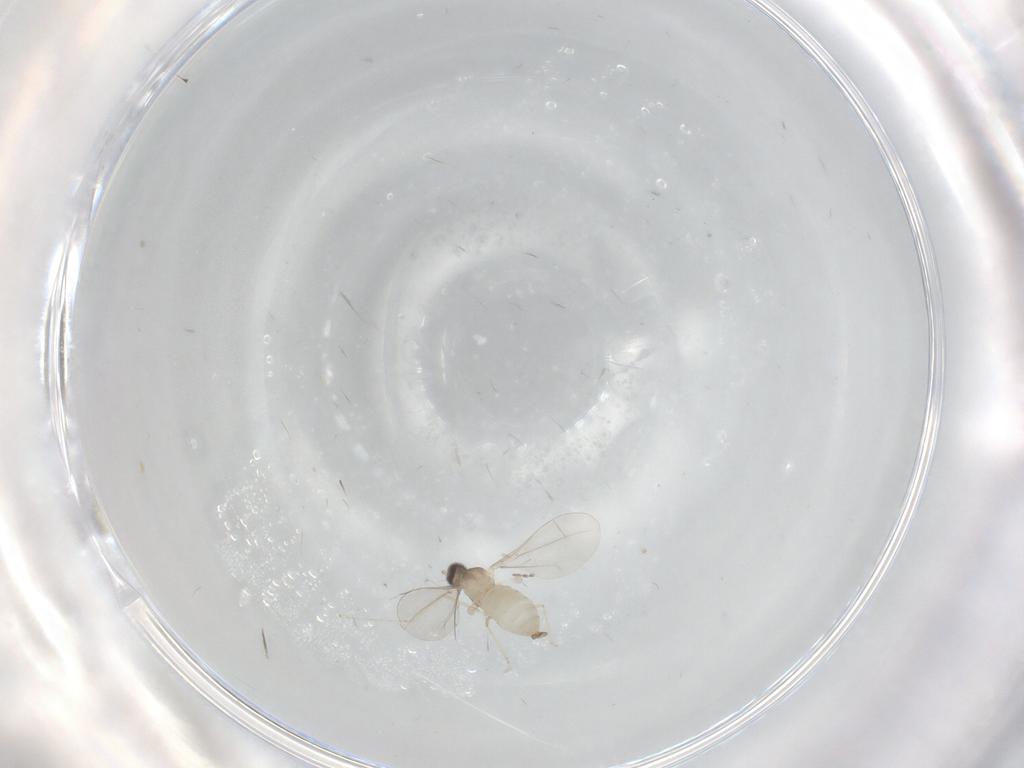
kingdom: Animalia
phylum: Arthropoda
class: Insecta
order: Diptera
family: Cecidomyiidae
